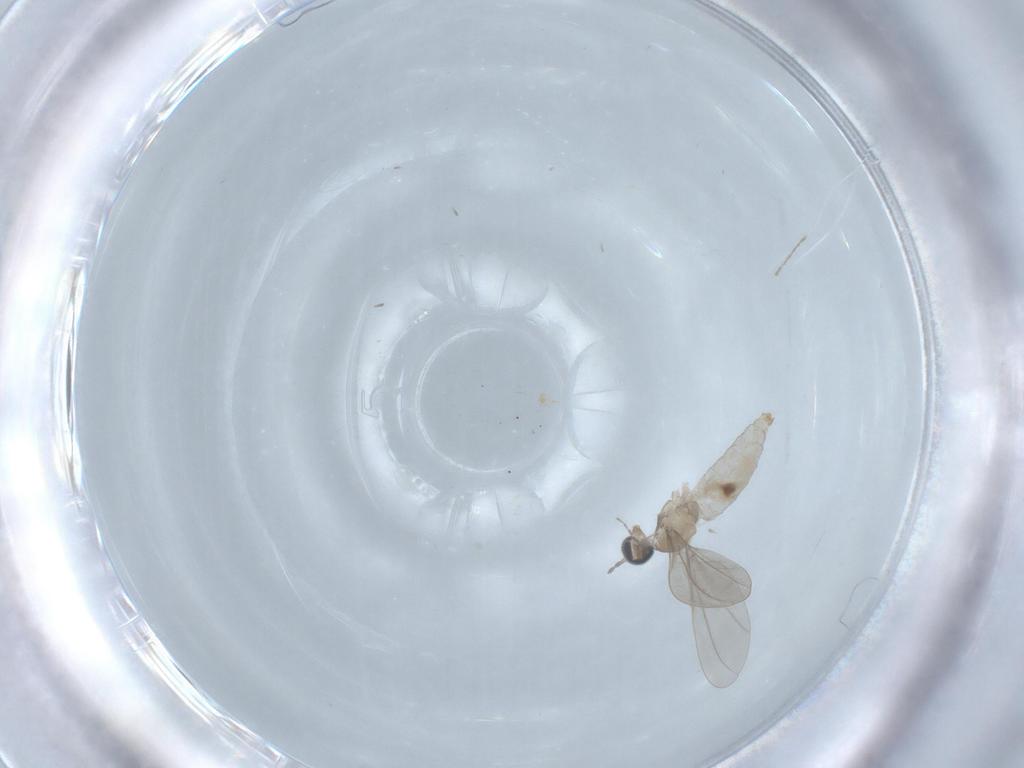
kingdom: Animalia
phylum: Arthropoda
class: Insecta
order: Diptera
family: Cecidomyiidae
